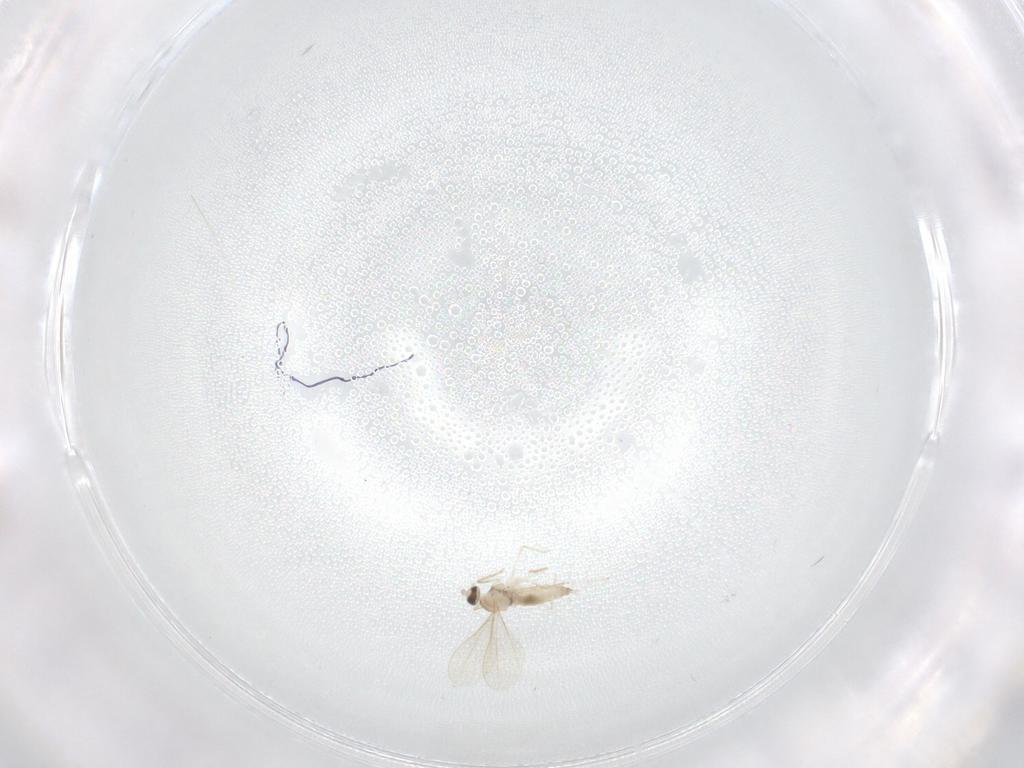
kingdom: Animalia
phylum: Arthropoda
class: Insecta
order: Diptera
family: Psychodidae
